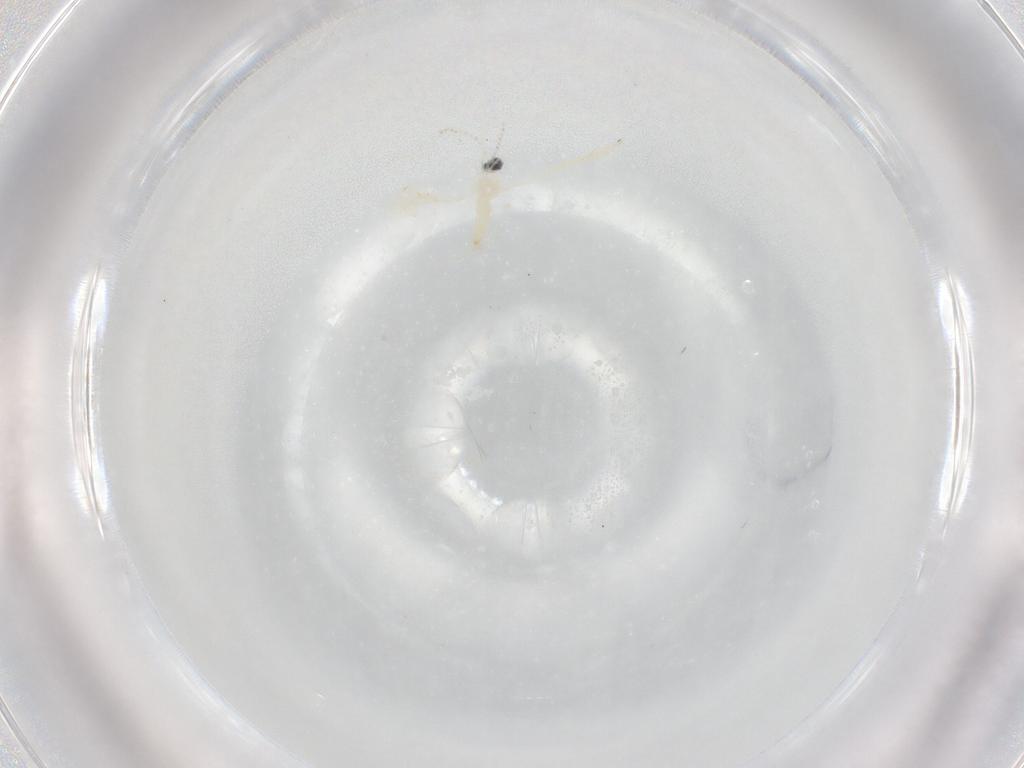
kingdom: Animalia
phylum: Arthropoda
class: Insecta
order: Diptera
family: Cecidomyiidae
